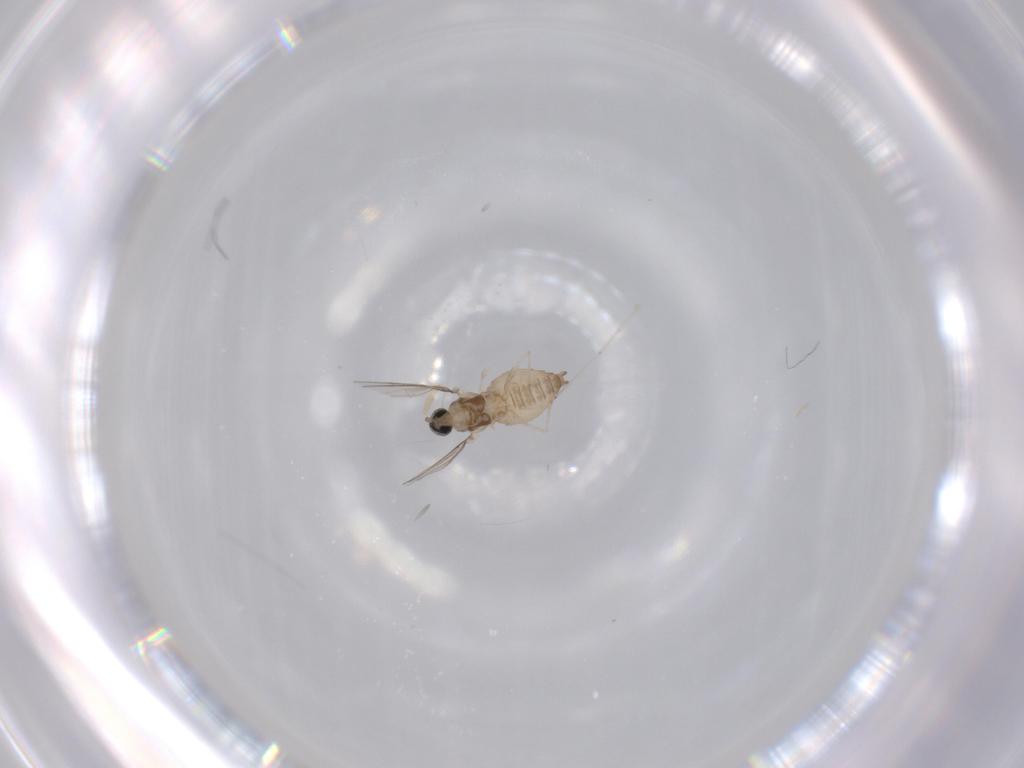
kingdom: Animalia
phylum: Arthropoda
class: Insecta
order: Diptera
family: Cecidomyiidae
